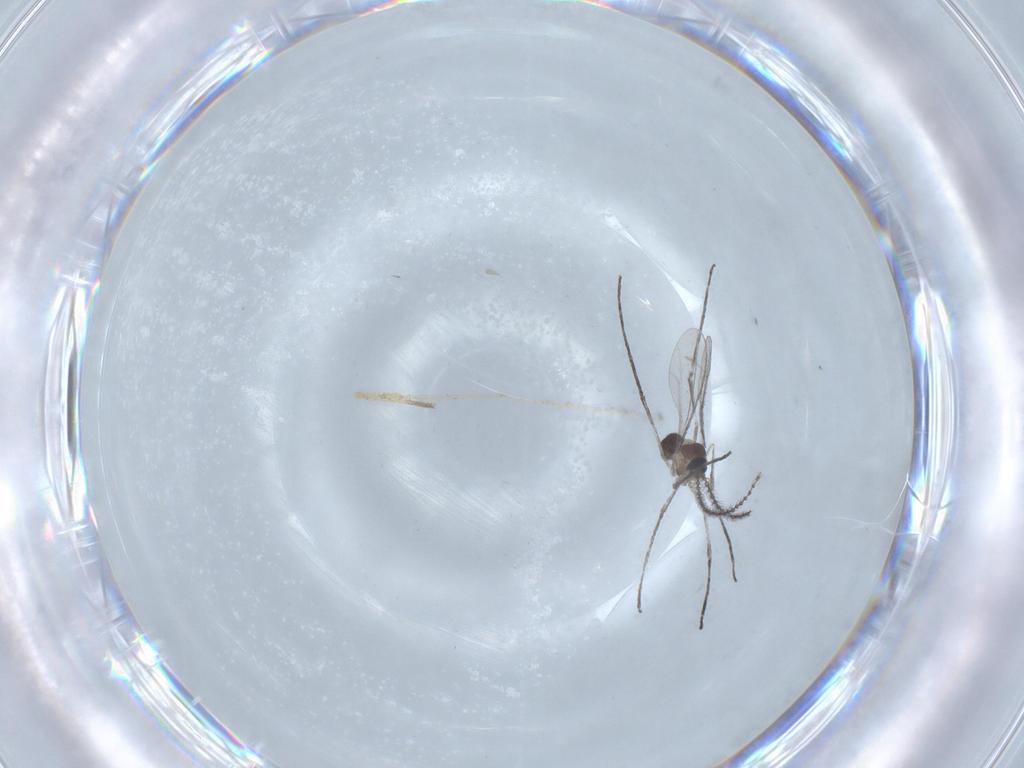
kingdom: Animalia
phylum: Arthropoda
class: Insecta
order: Diptera
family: Cecidomyiidae
